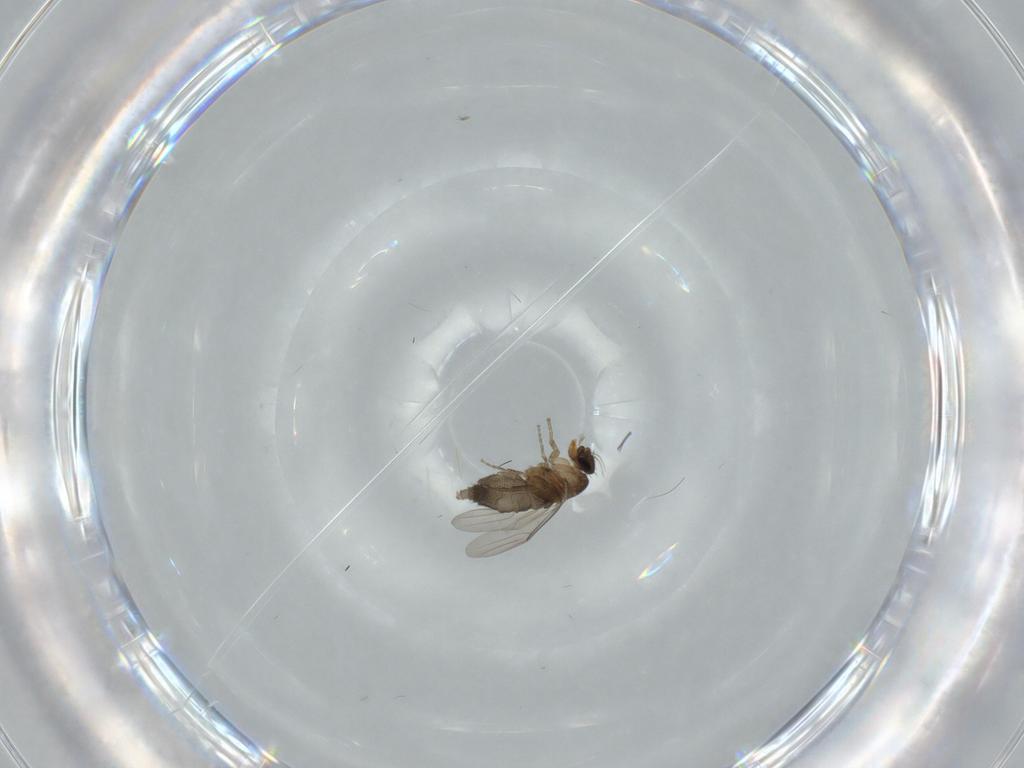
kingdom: Animalia
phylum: Arthropoda
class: Insecta
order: Diptera
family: Phoridae
